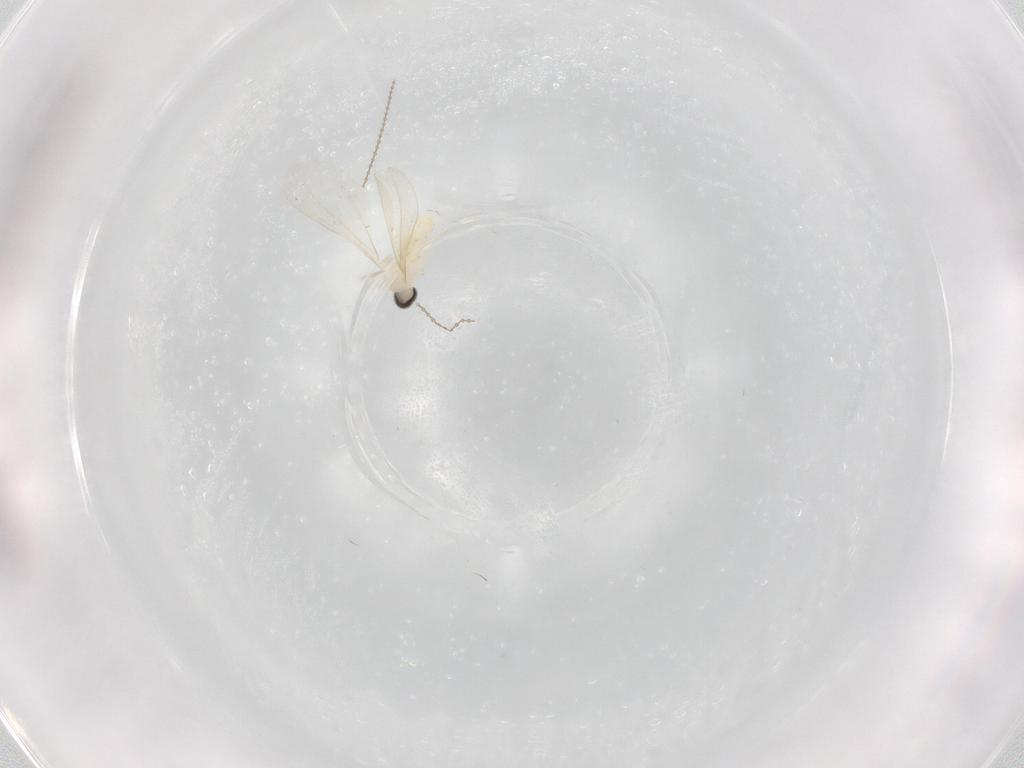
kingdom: Animalia
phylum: Arthropoda
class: Insecta
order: Diptera
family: Cecidomyiidae
